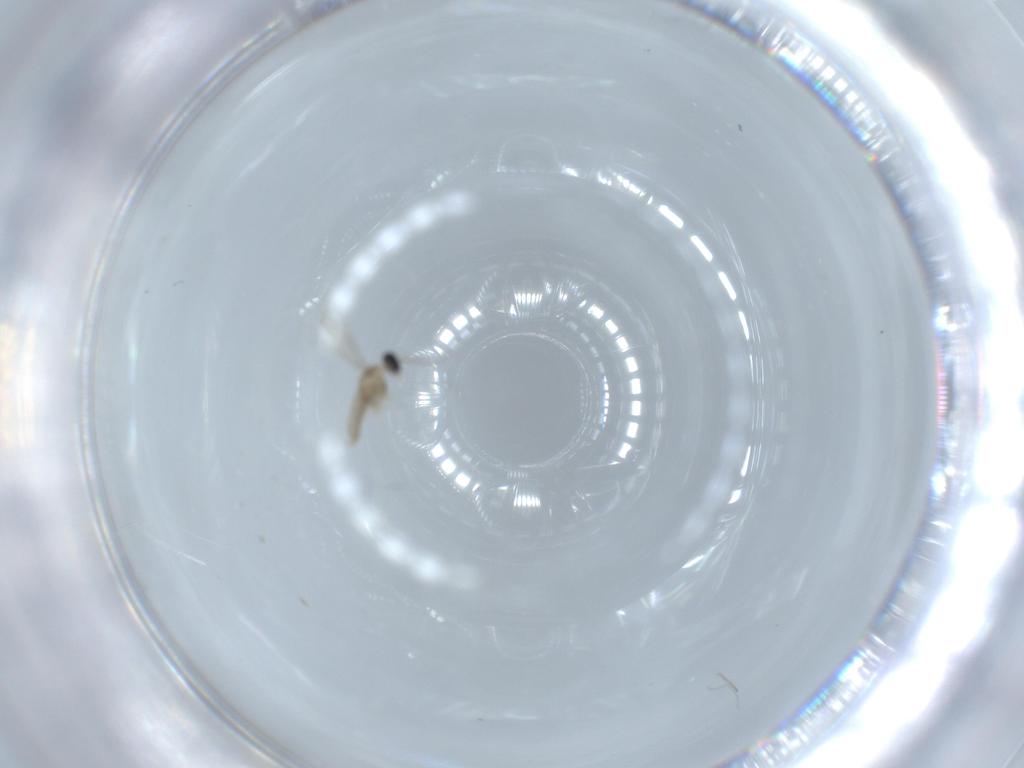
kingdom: Animalia
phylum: Arthropoda
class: Insecta
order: Diptera
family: Cecidomyiidae
